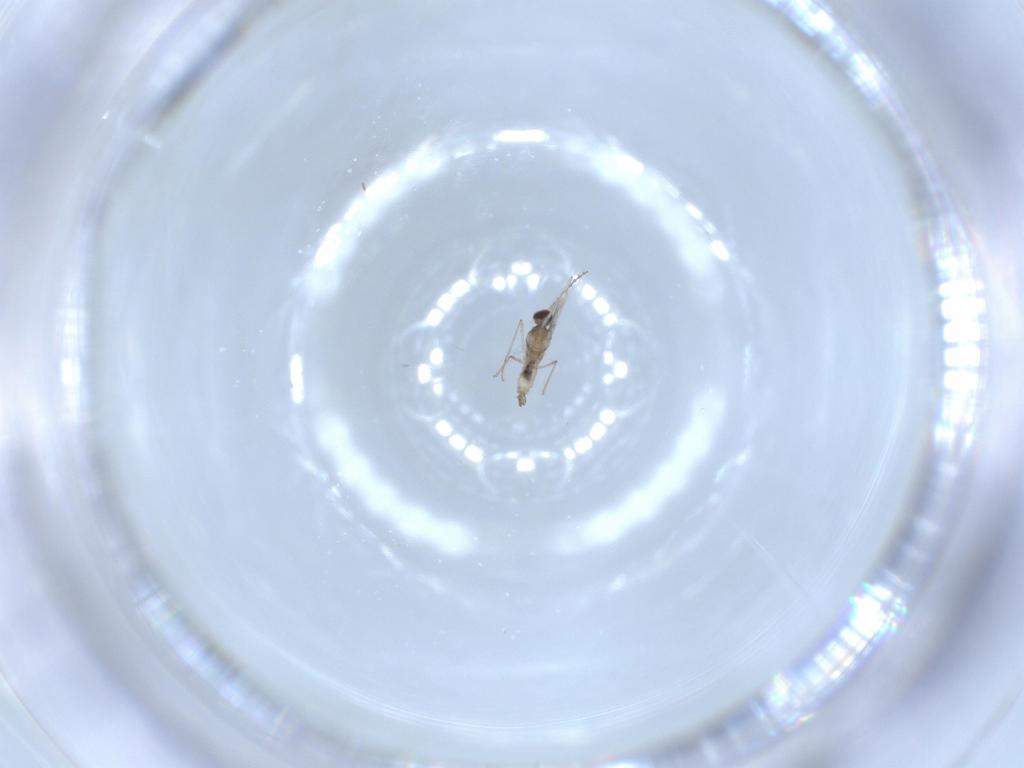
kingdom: Animalia
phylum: Arthropoda
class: Insecta
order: Diptera
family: Cecidomyiidae
